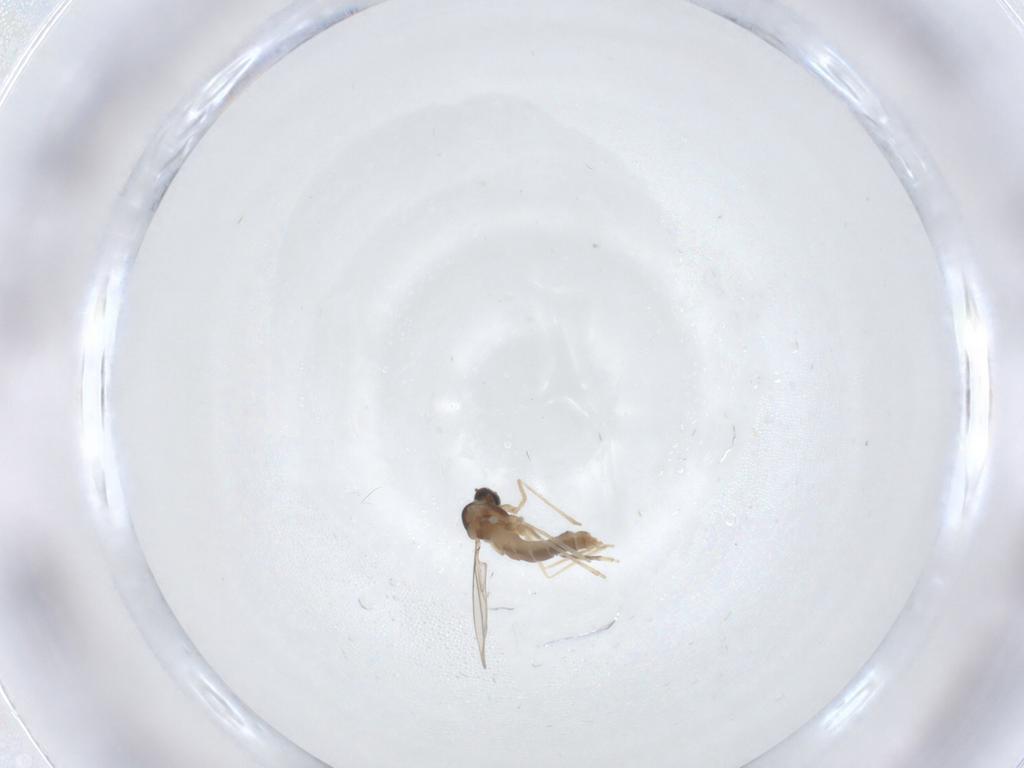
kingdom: Animalia
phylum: Arthropoda
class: Insecta
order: Diptera
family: Cecidomyiidae
